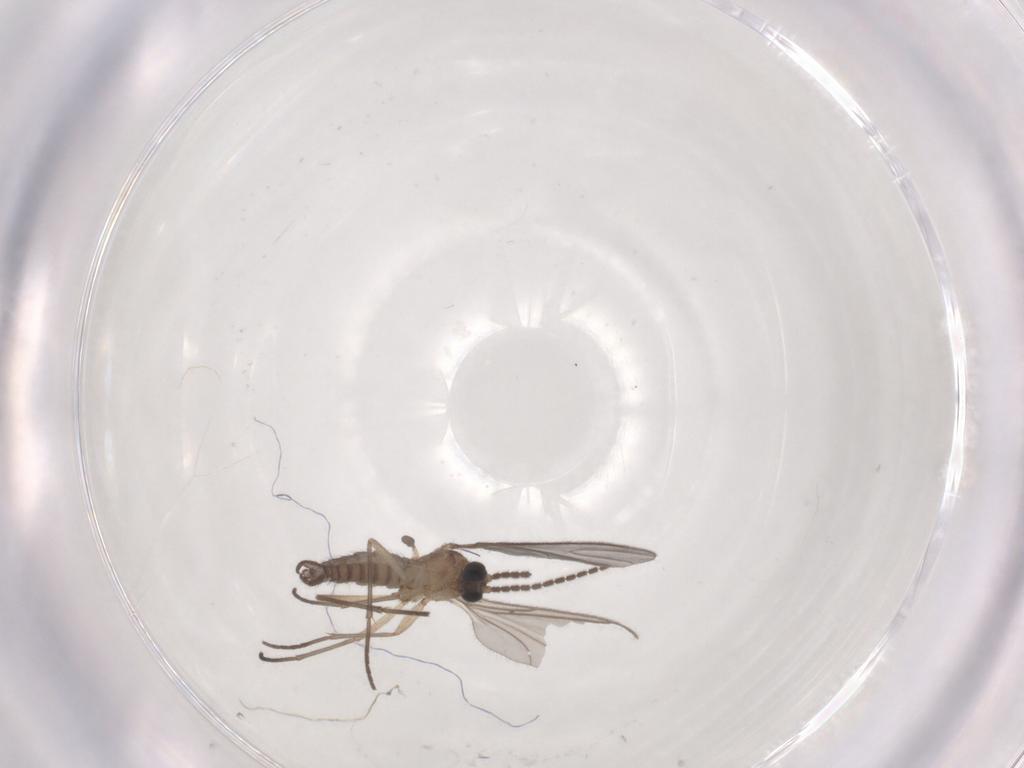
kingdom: Animalia
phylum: Arthropoda
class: Insecta
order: Diptera
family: Sciaridae
